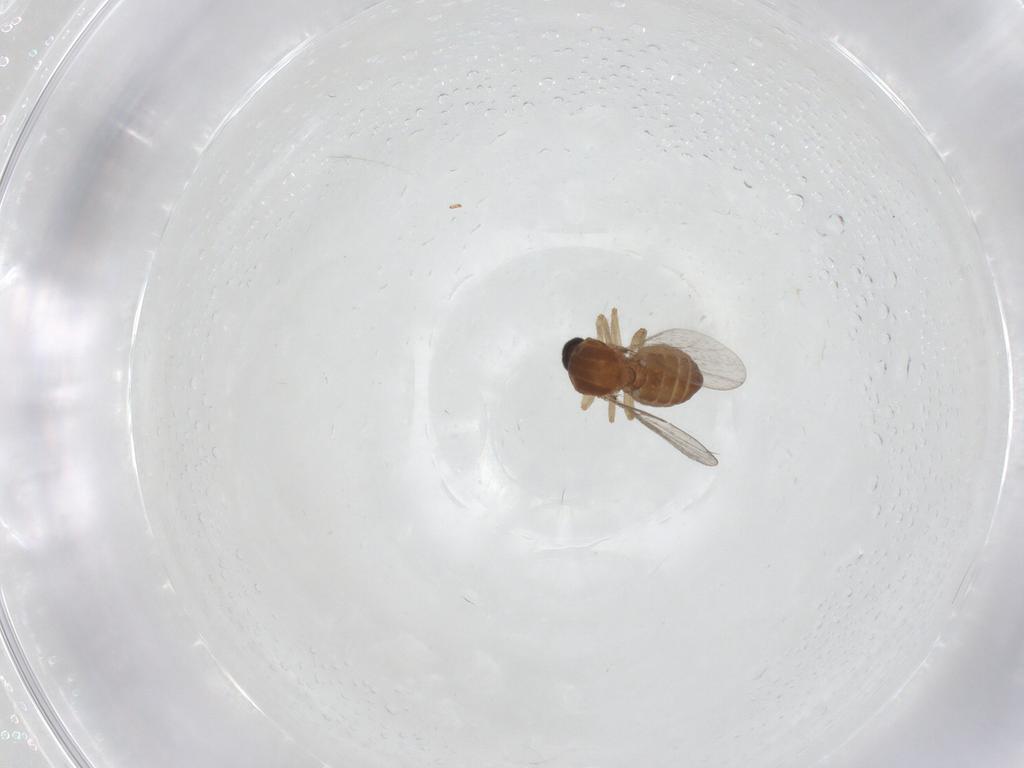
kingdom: Animalia
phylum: Arthropoda
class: Insecta
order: Diptera
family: Ceratopogonidae
